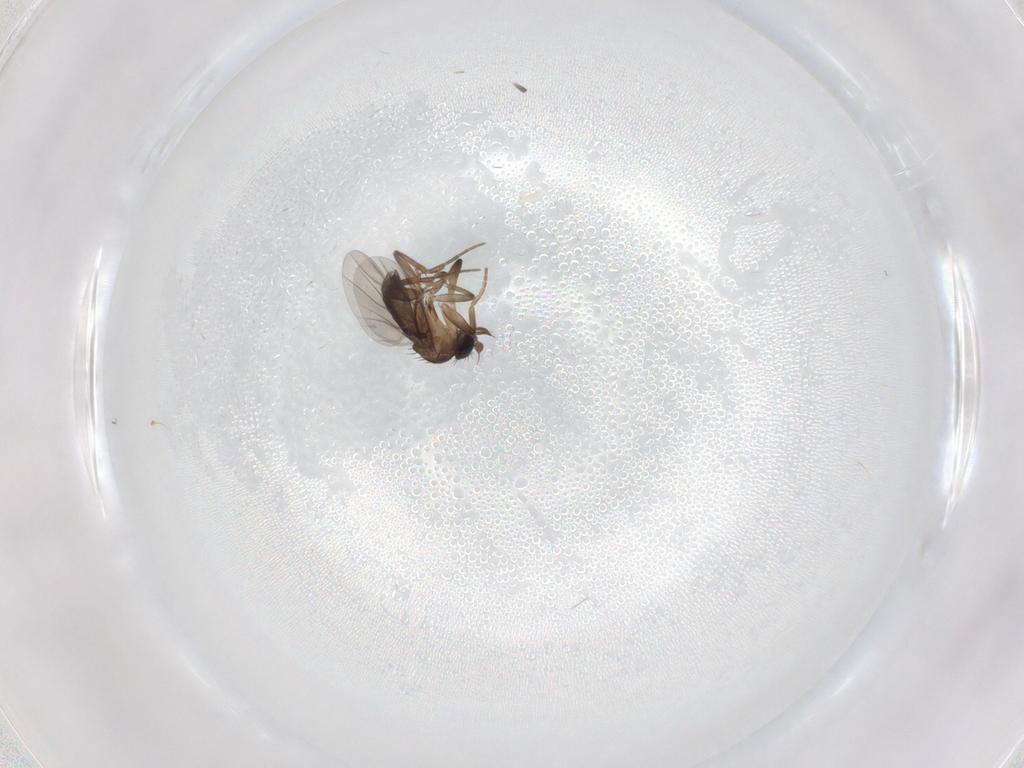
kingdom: Animalia
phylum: Arthropoda
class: Insecta
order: Diptera
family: Phoridae
